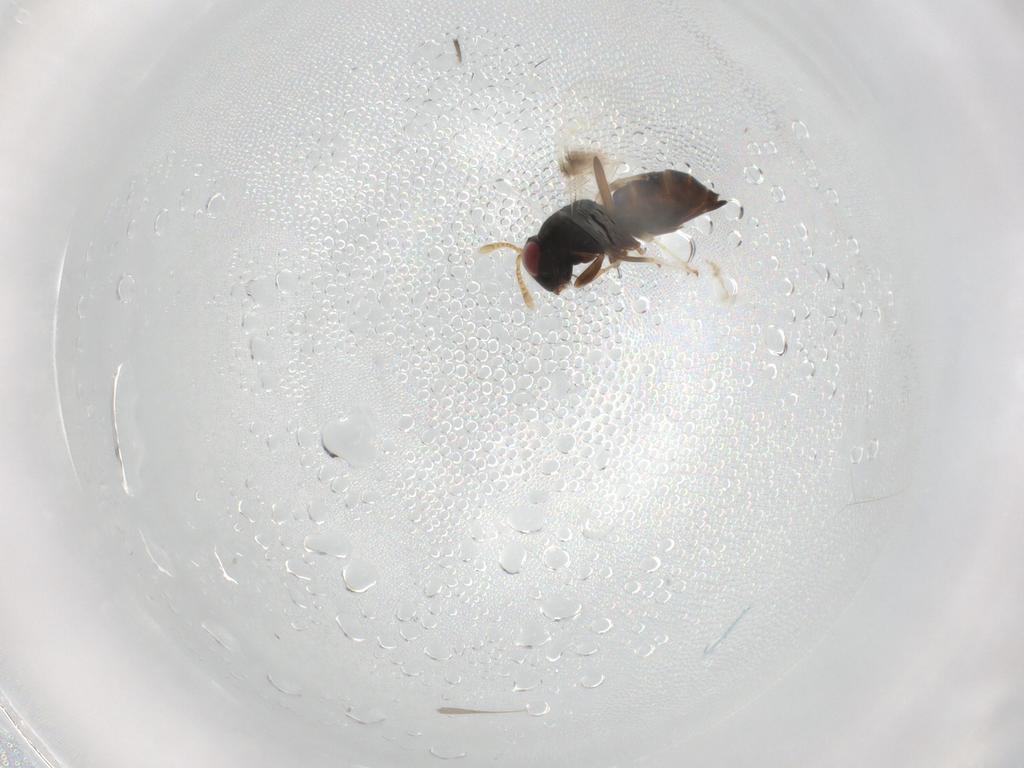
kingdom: Animalia
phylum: Arthropoda
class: Insecta
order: Hymenoptera
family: Pteromalidae
